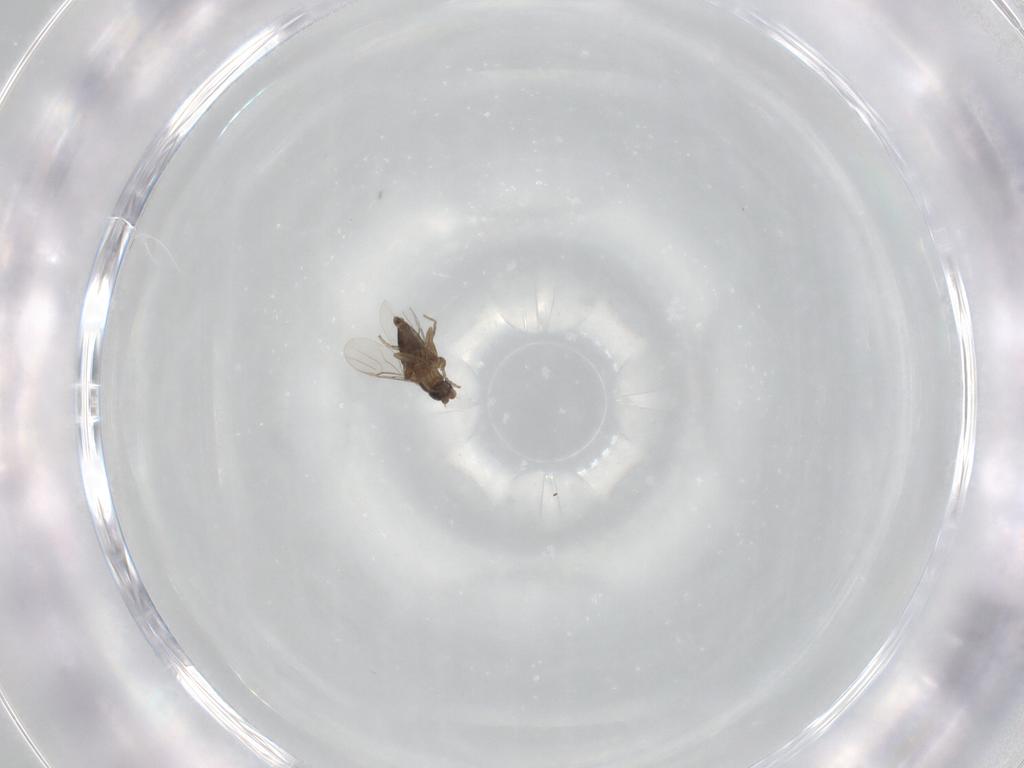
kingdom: Animalia
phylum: Arthropoda
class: Insecta
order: Diptera
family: Phoridae
